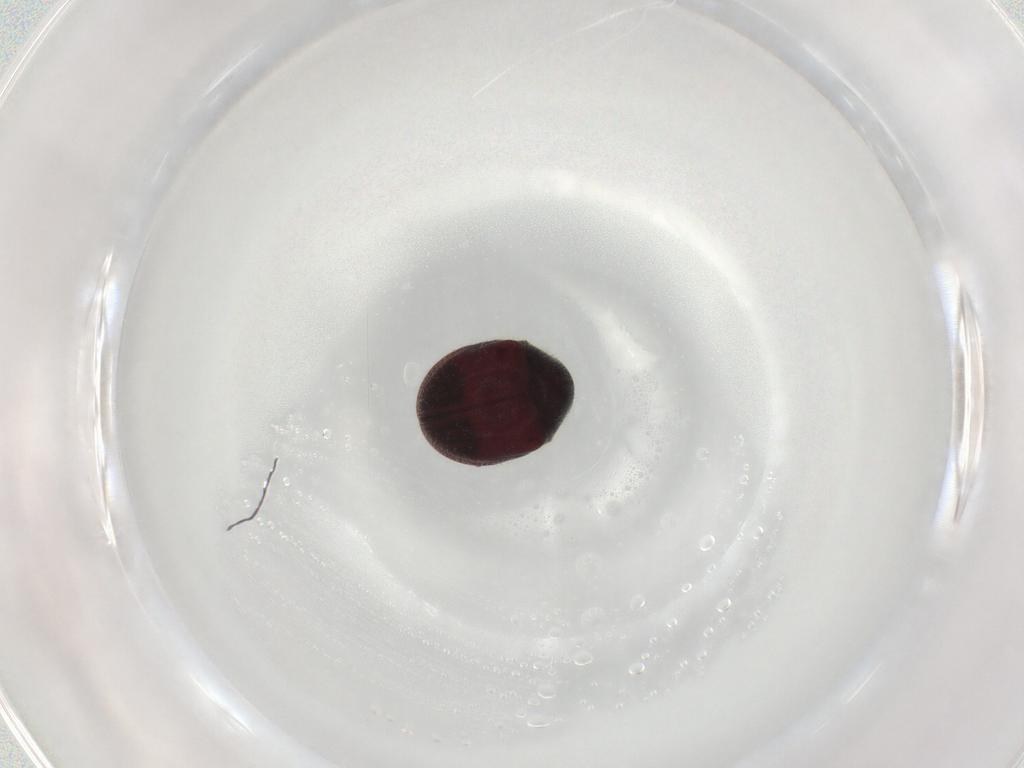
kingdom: Animalia
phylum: Arthropoda
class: Insecta
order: Coleoptera
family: Ptinidae
